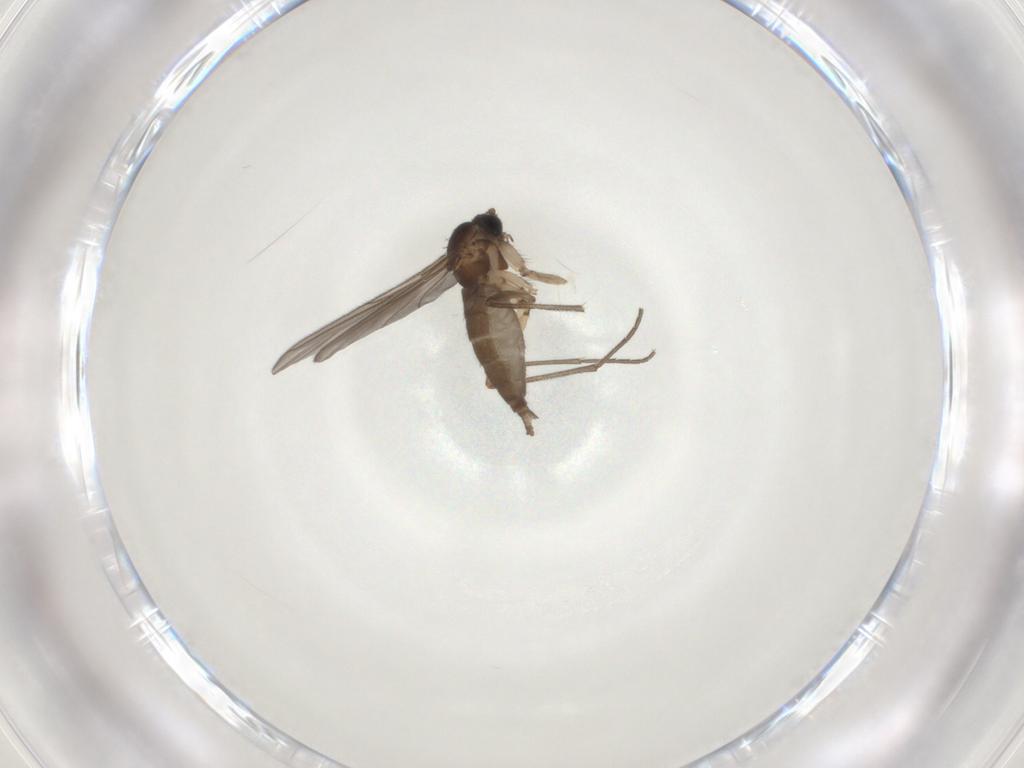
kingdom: Animalia
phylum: Arthropoda
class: Insecta
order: Diptera
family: Sciaridae
